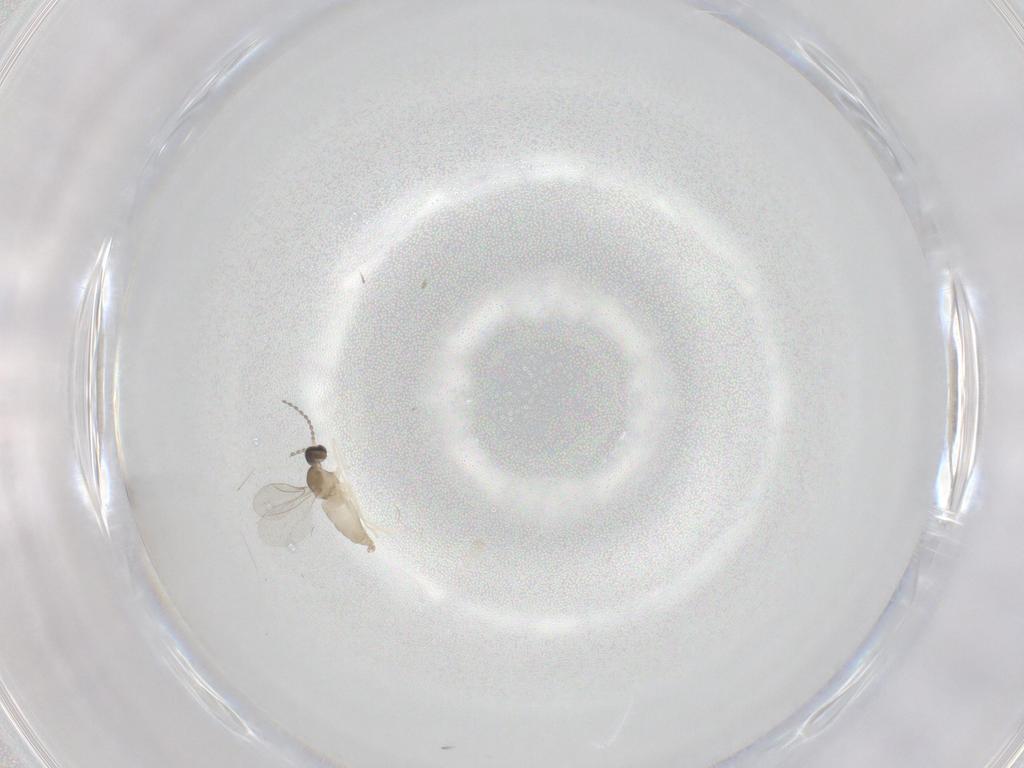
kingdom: Animalia
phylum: Arthropoda
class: Insecta
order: Diptera
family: Cecidomyiidae
